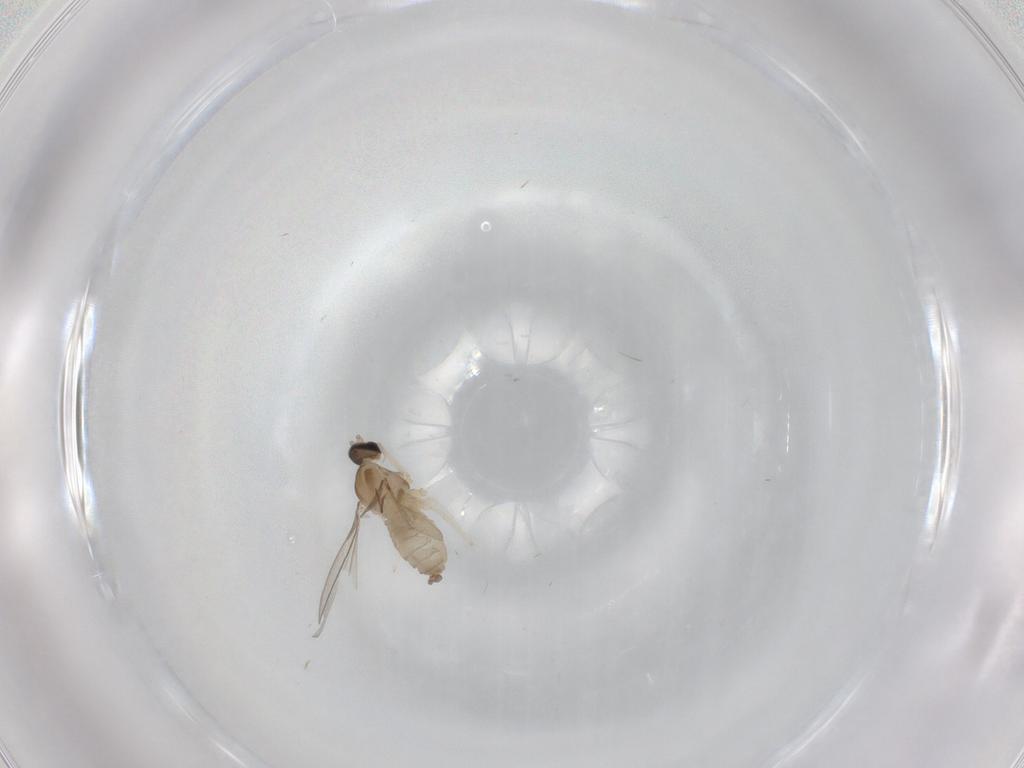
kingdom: Animalia
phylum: Arthropoda
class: Insecta
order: Diptera
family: Cecidomyiidae
